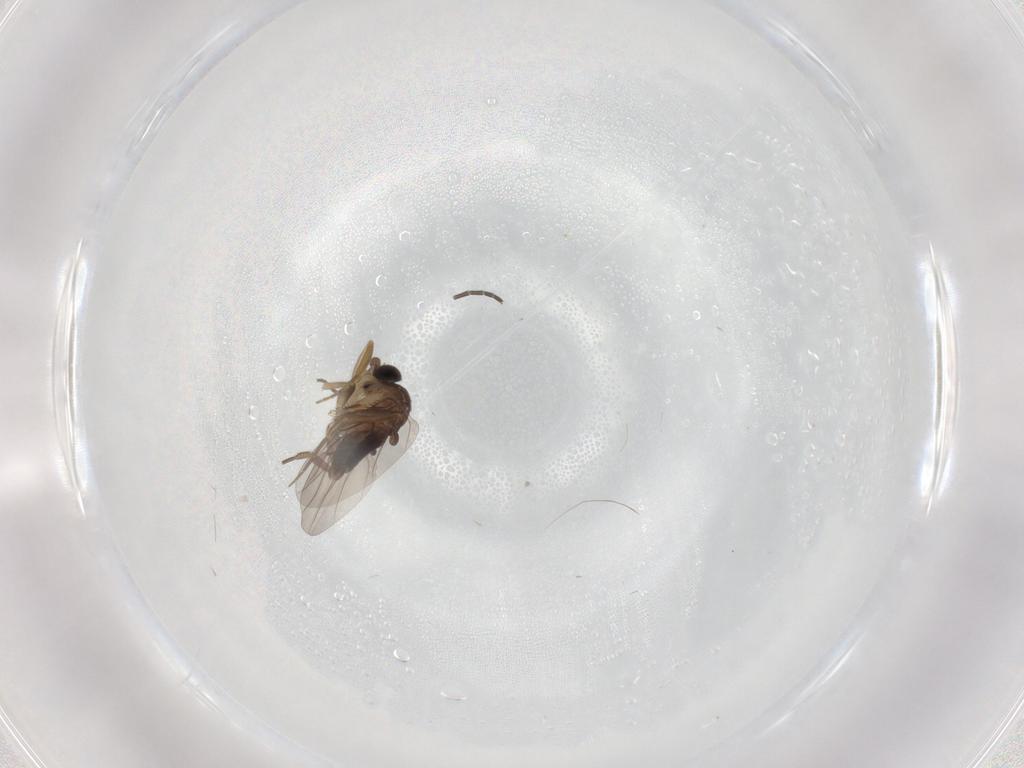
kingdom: Animalia
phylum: Arthropoda
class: Insecta
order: Diptera
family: Phoridae
